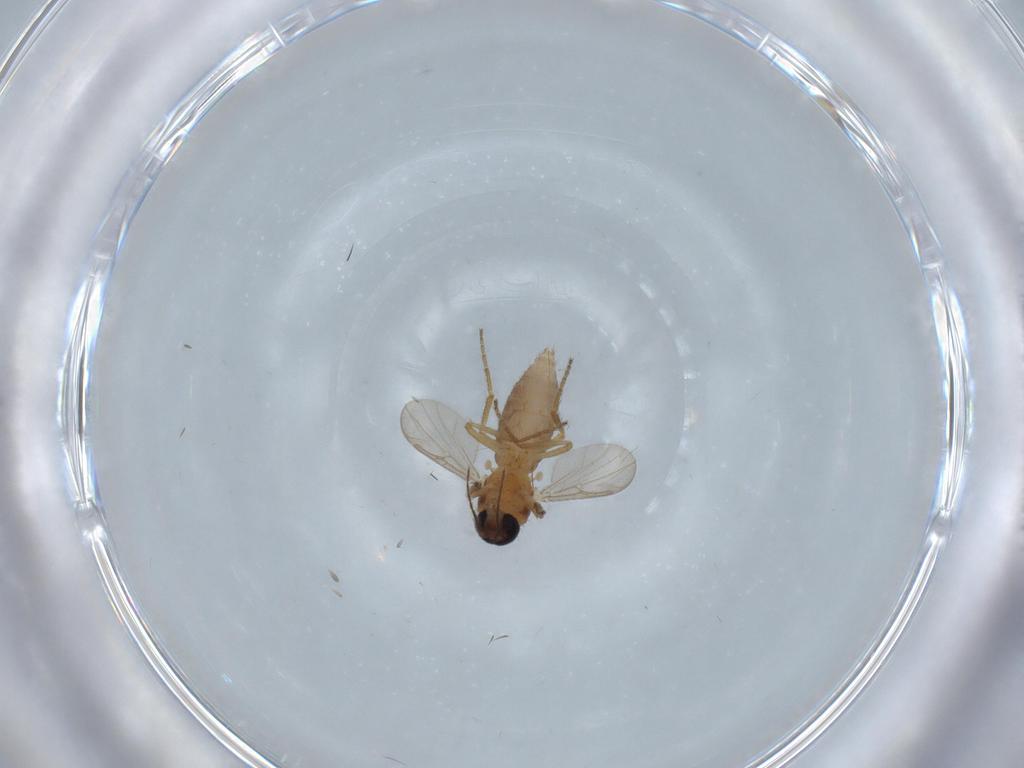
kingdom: Animalia
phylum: Arthropoda
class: Insecta
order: Diptera
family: Ceratopogonidae
